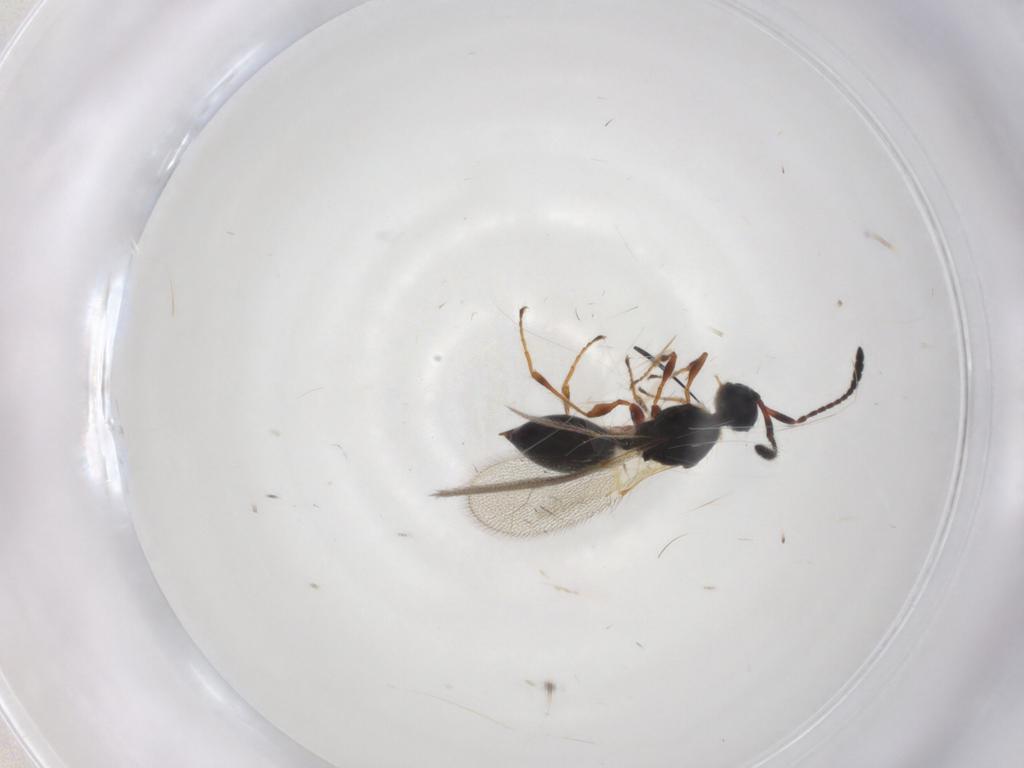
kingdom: Animalia
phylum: Arthropoda
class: Insecta
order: Hymenoptera
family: Diapriidae
